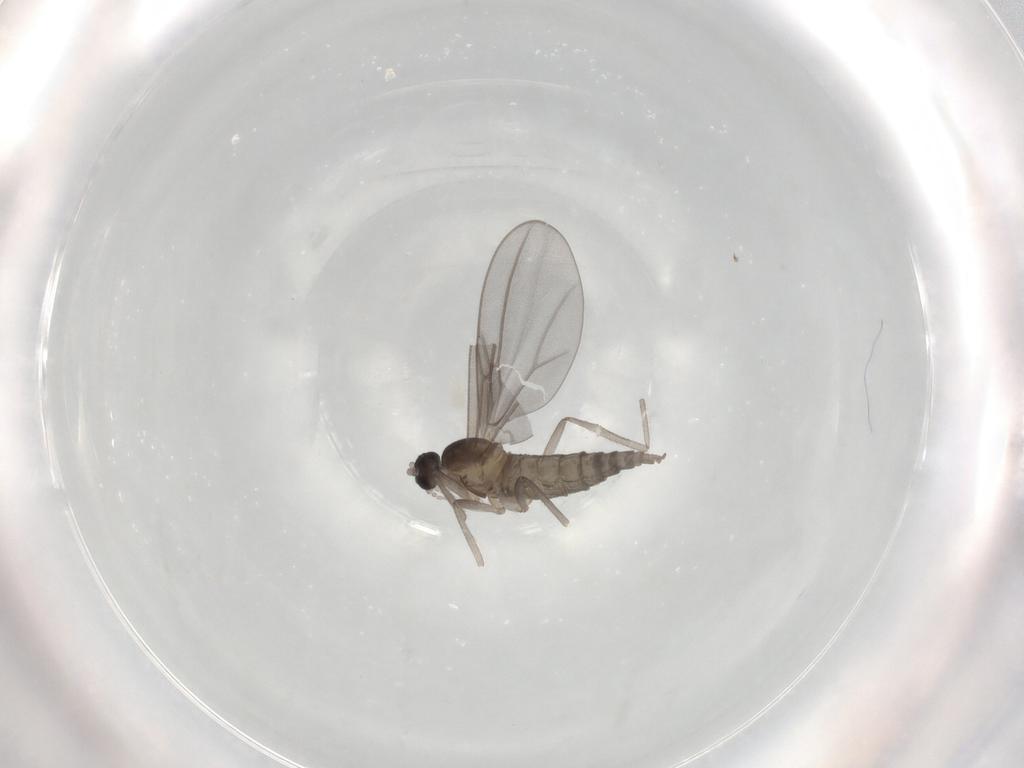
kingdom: Animalia
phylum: Arthropoda
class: Insecta
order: Diptera
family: Cecidomyiidae
